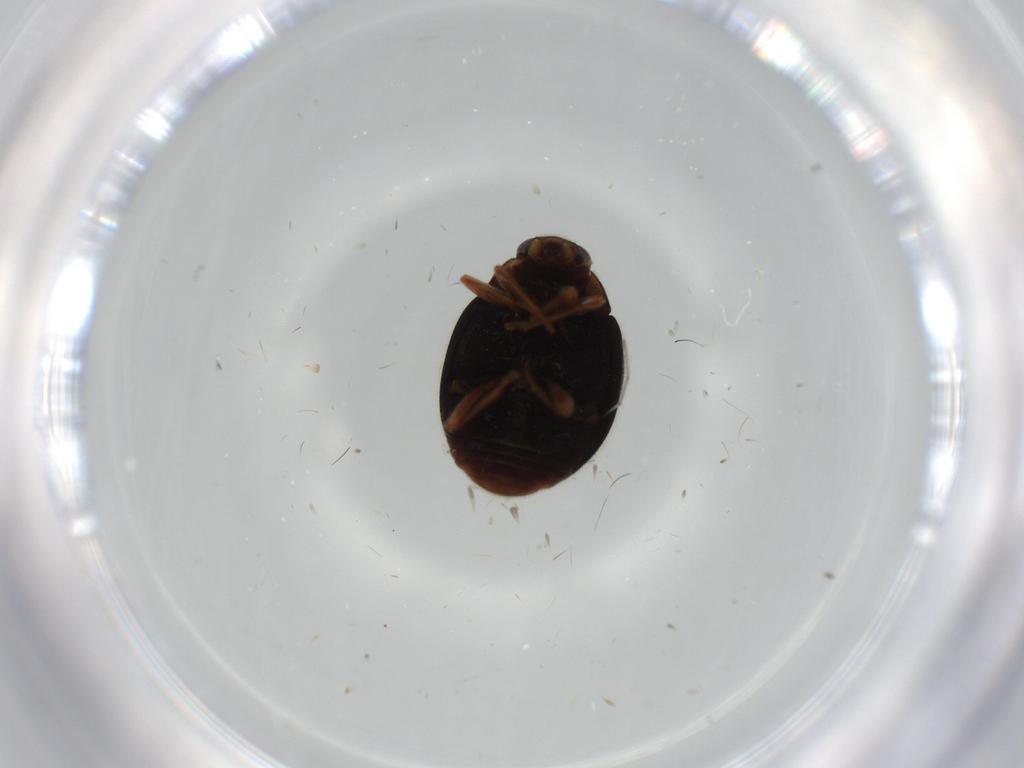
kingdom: Animalia
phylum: Arthropoda
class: Insecta
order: Coleoptera
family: Coccinellidae
